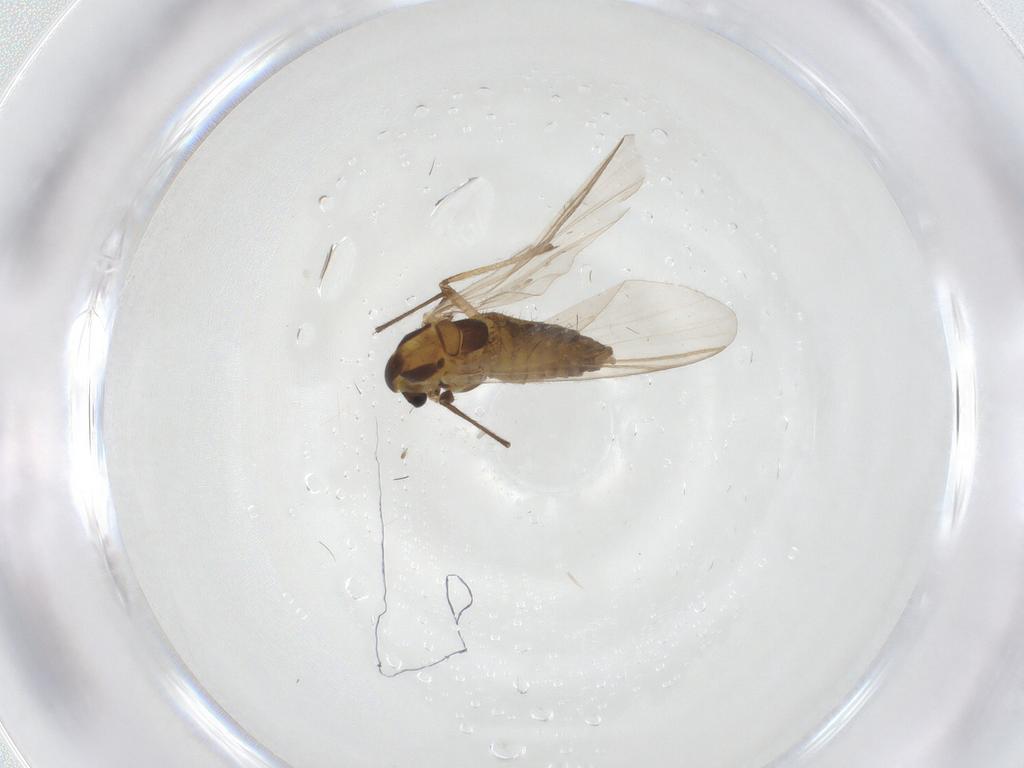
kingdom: Animalia
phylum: Arthropoda
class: Insecta
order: Diptera
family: Chironomidae
